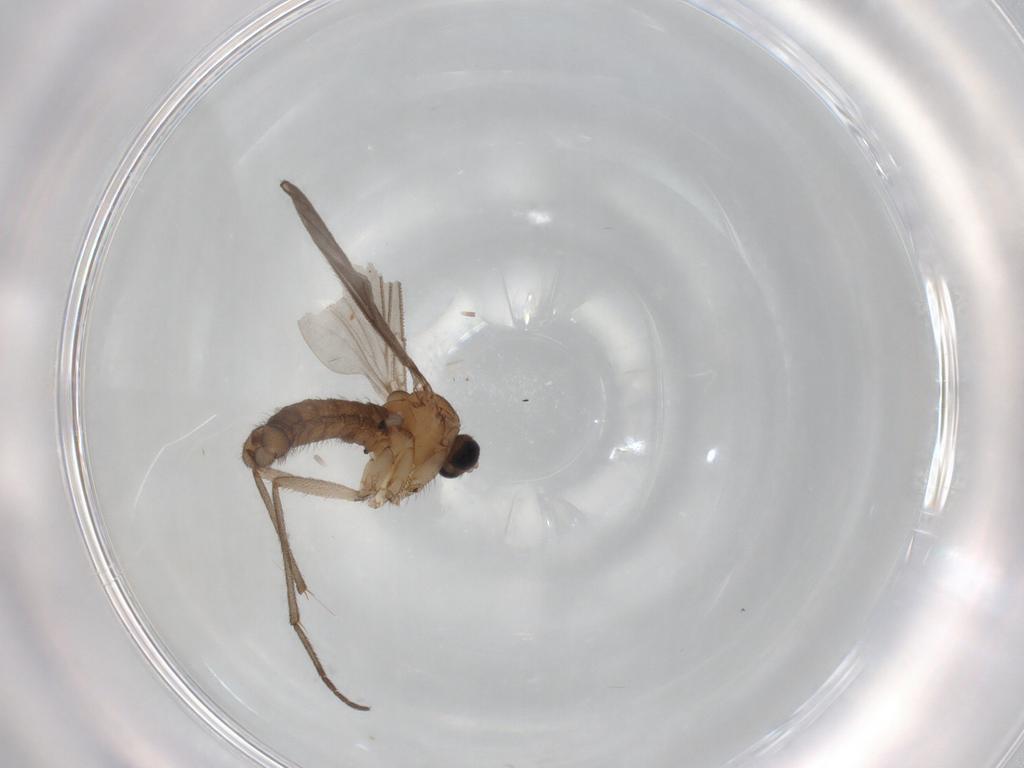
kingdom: Animalia
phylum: Arthropoda
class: Insecta
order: Diptera
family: Sciaridae
